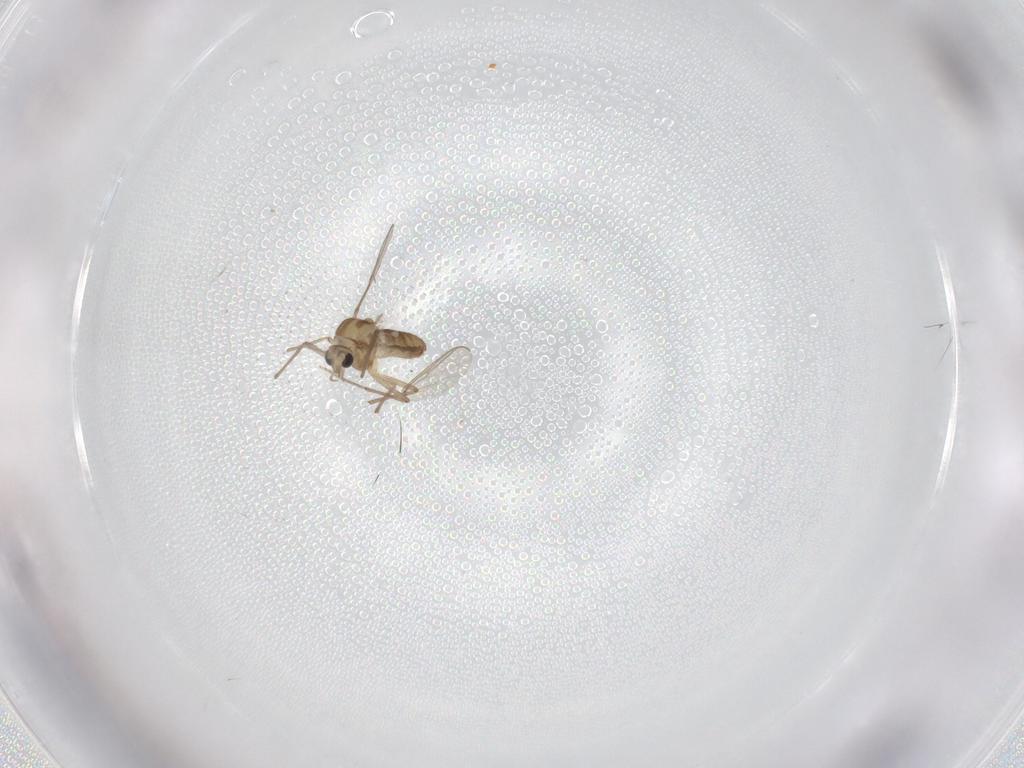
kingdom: Animalia
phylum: Arthropoda
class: Insecta
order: Diptera
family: Chironomidae
